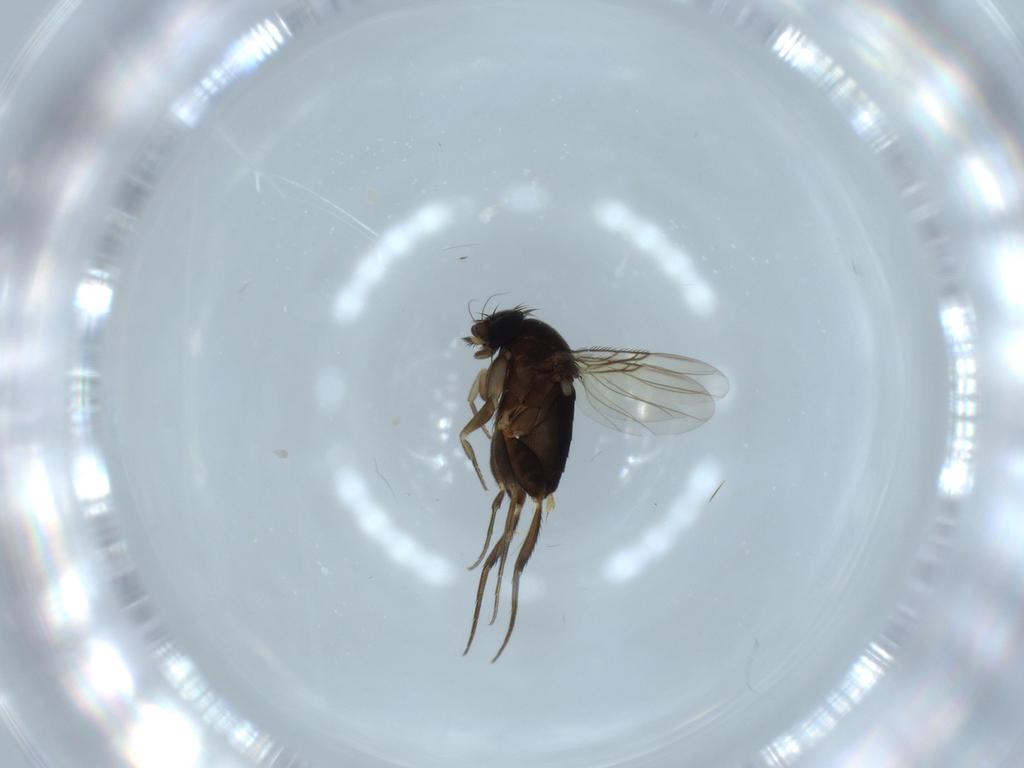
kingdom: Animalia
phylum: Arthropoda
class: Insecta
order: Diptera
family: Phoridae
